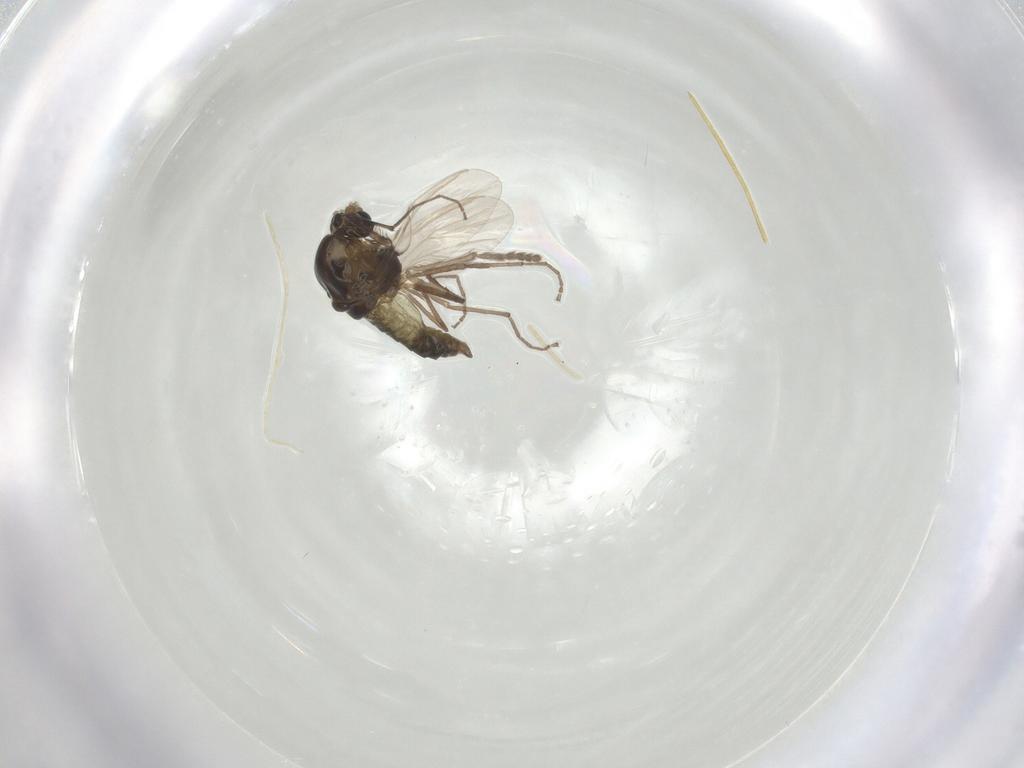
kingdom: Animalia
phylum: Arthropoda
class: Insecta
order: Diptera
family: Chironomidae
